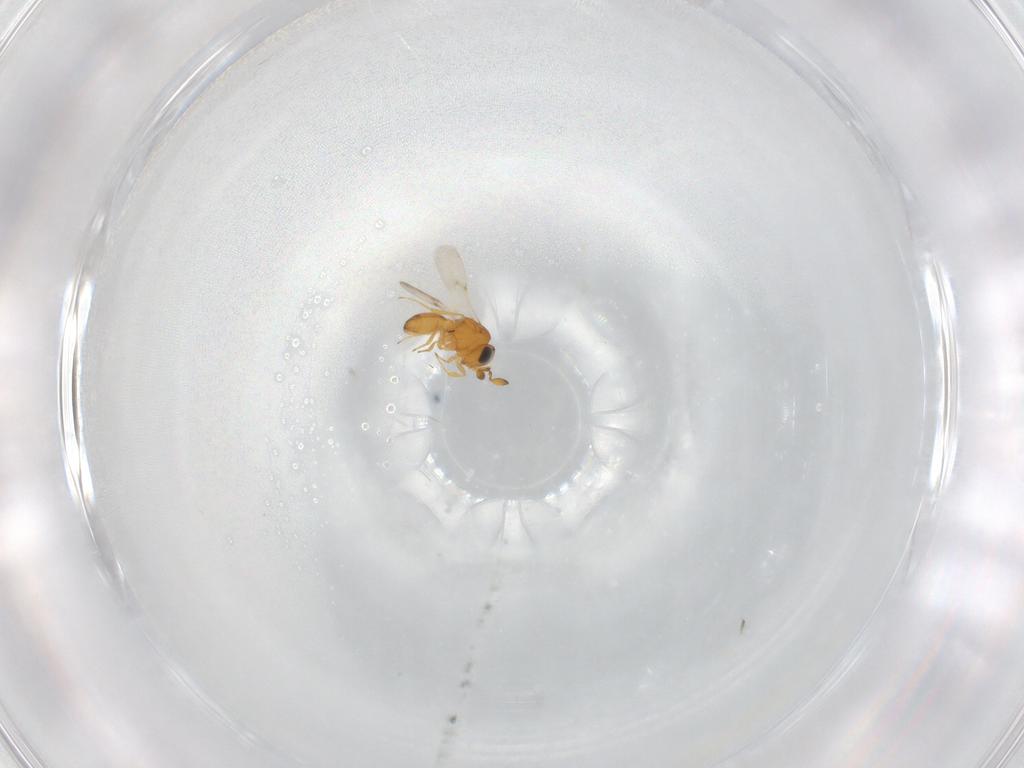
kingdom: Animalia
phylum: Arthropoda
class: Insecta
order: Hymenoptera
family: Scelionidae
